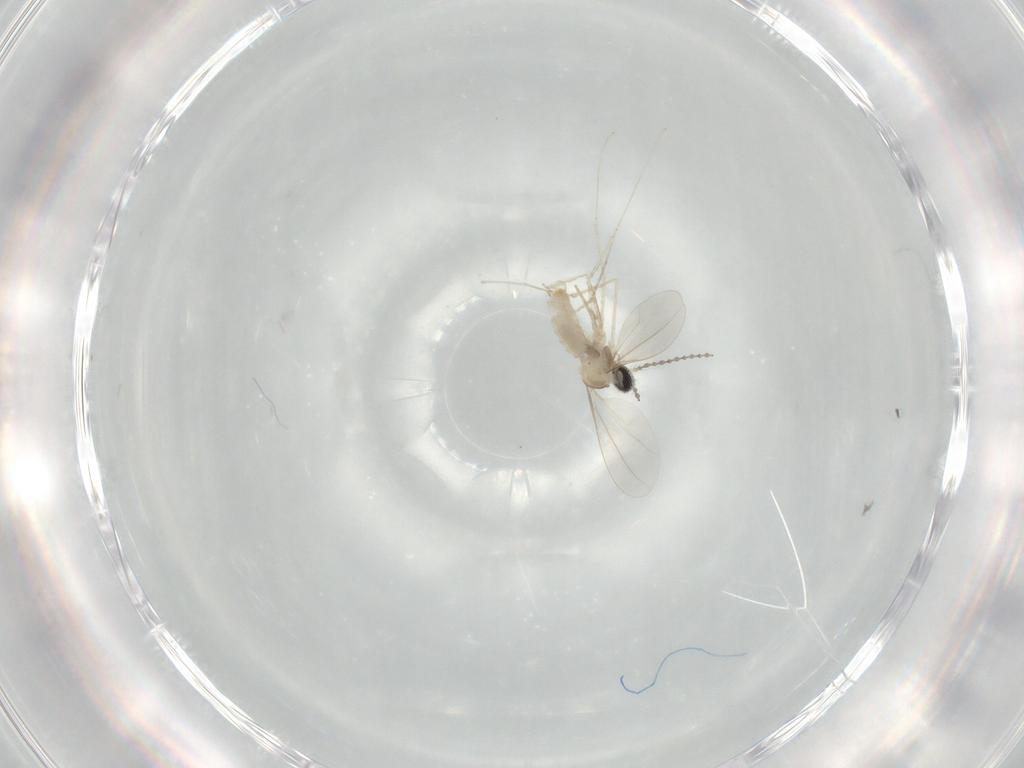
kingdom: Animalia
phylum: Arthropoda
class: Insecta
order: Diptera
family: Cecidomyiidae
